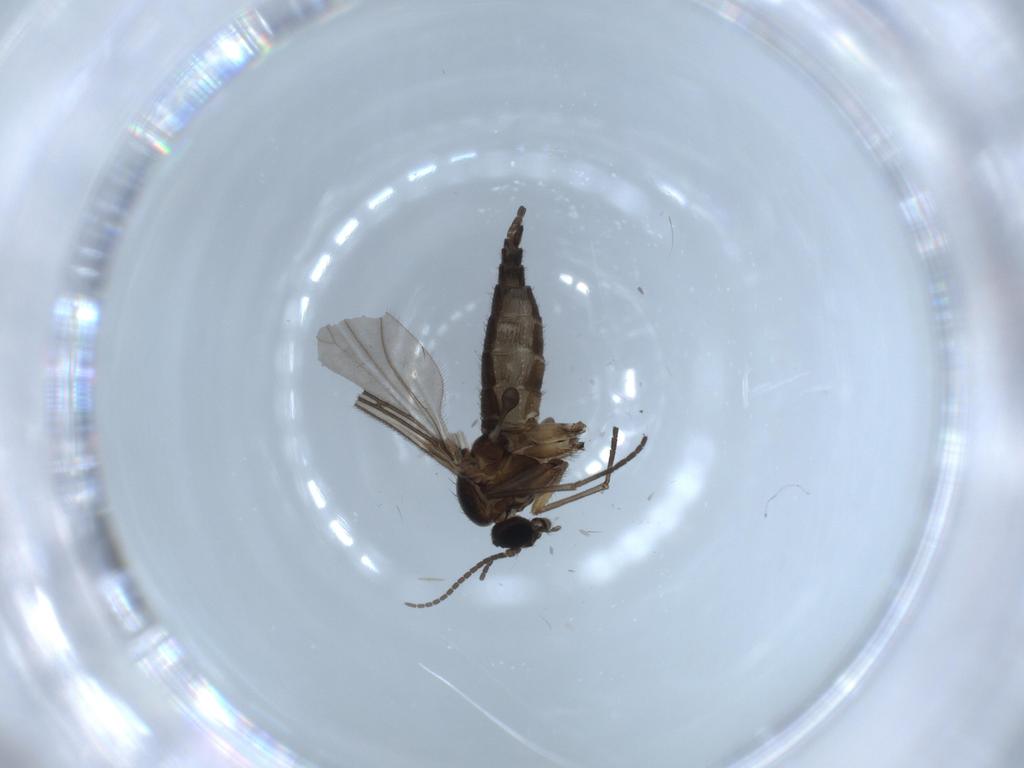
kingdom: Animalia
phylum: Arthropoda
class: Insecta
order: Diptera
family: Sciaridae
